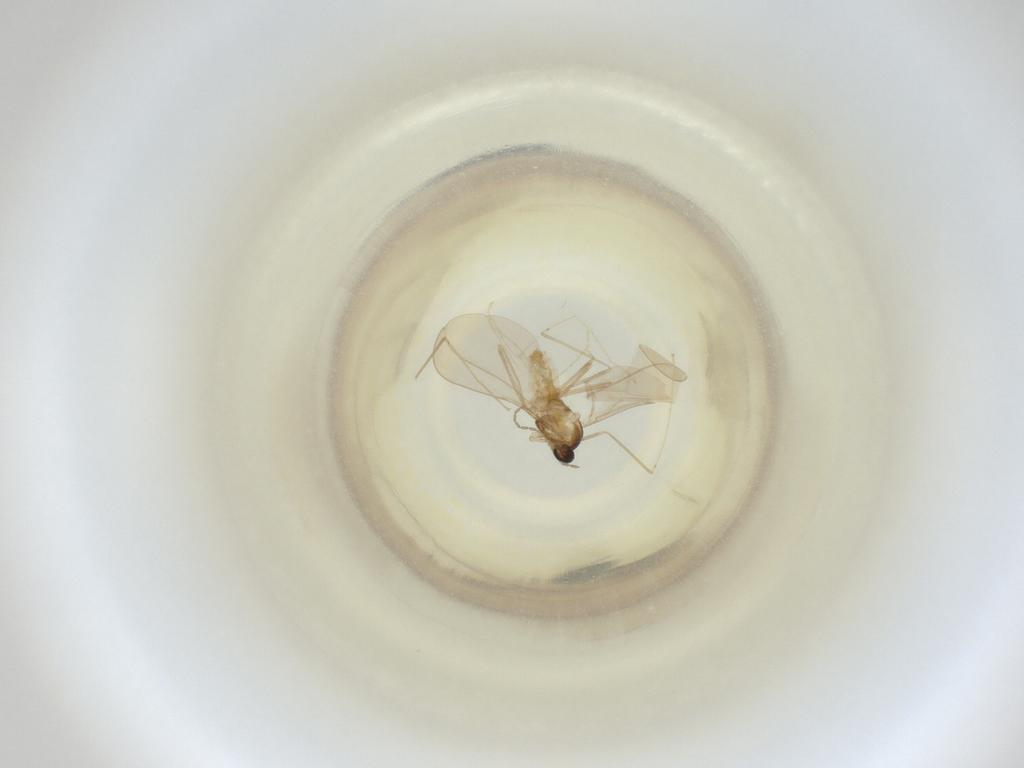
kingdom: Animalia
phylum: Arthropoda
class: Insecta
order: Diptera
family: Cecidomyiidae
